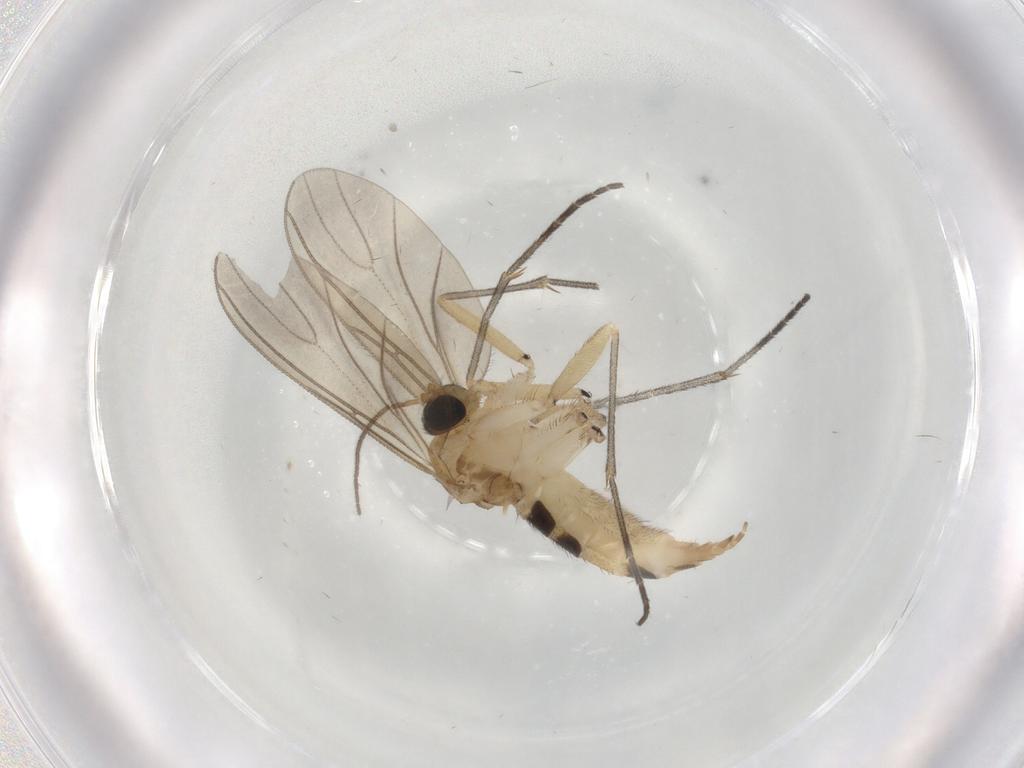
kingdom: Animalia
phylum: Arthropoda
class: Insecta
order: Diptera
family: Limoniidae
